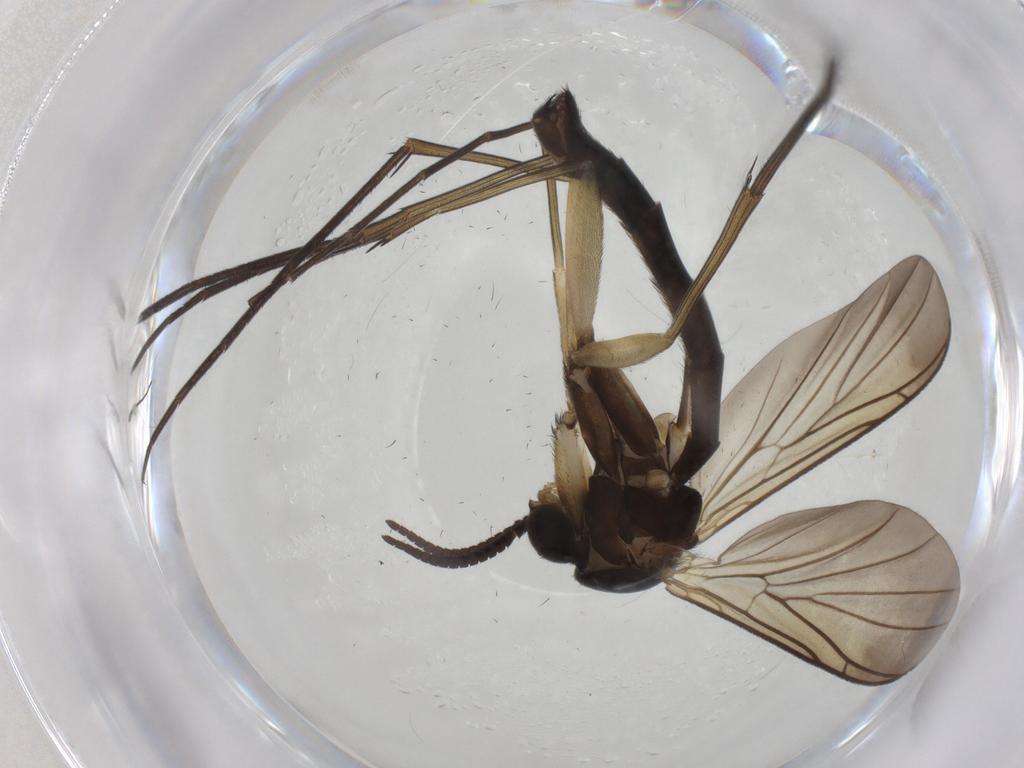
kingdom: Animalia
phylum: Arthropoda
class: Insecta
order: Diptera
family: Keroplatidae
